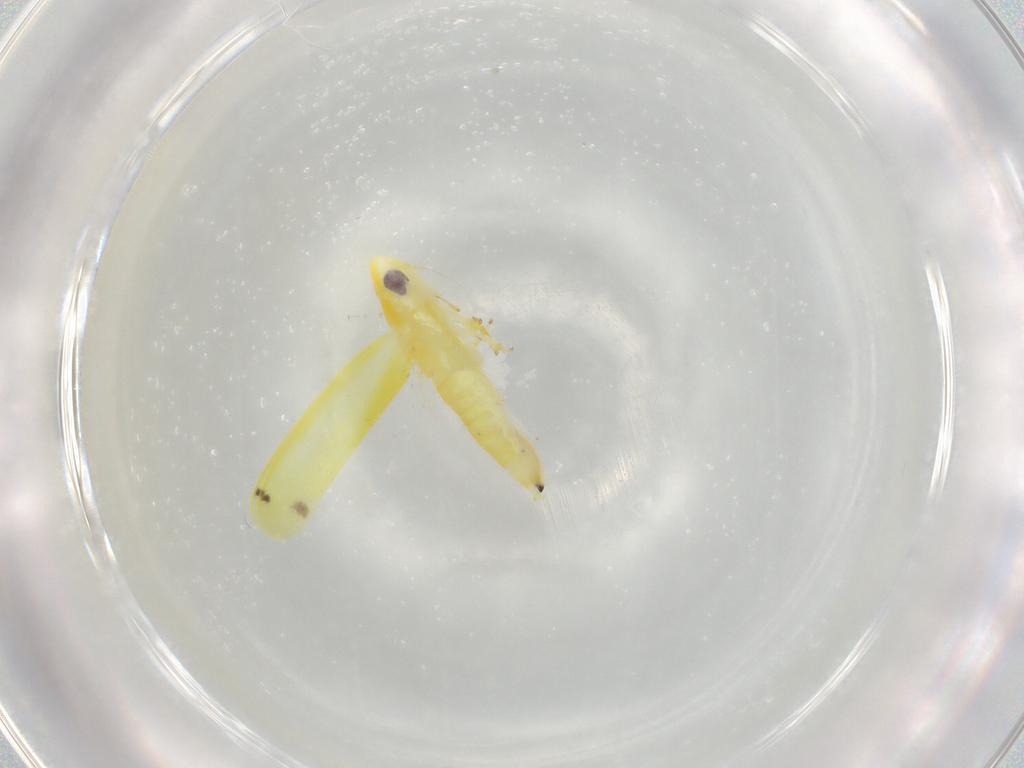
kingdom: Animalia
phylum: Arthropoda
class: Insecta
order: Hemiptera
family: Cicadellidae
